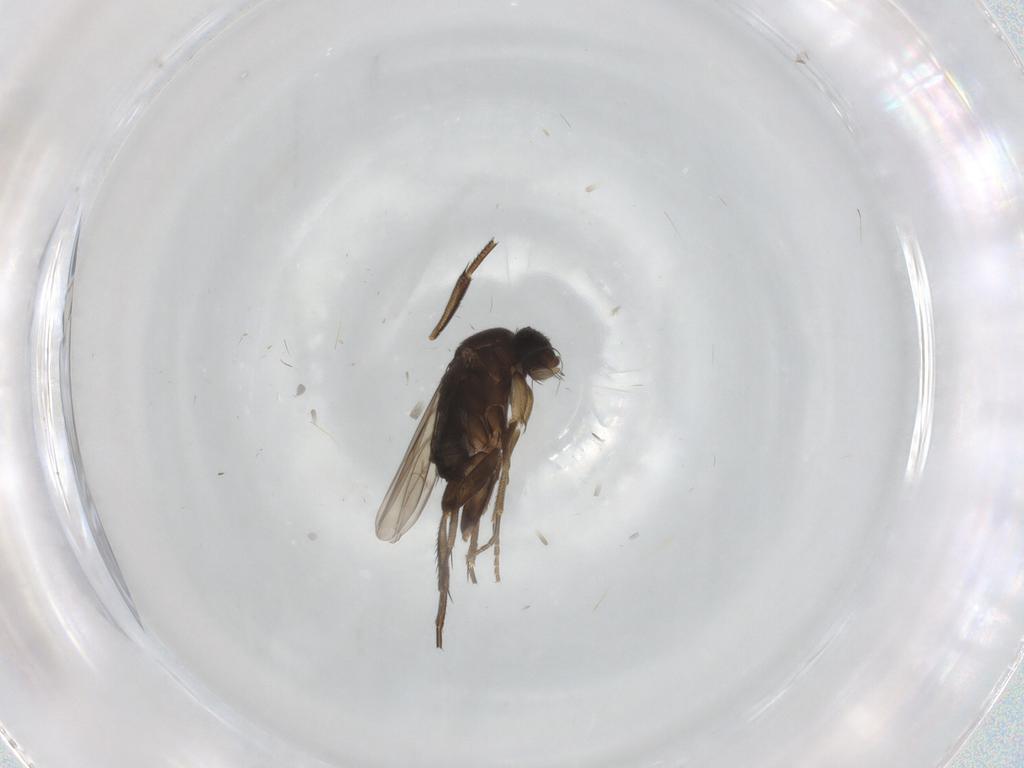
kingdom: Animalia
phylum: Arthropoda
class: Insecta
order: Diptera
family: Phoridae
